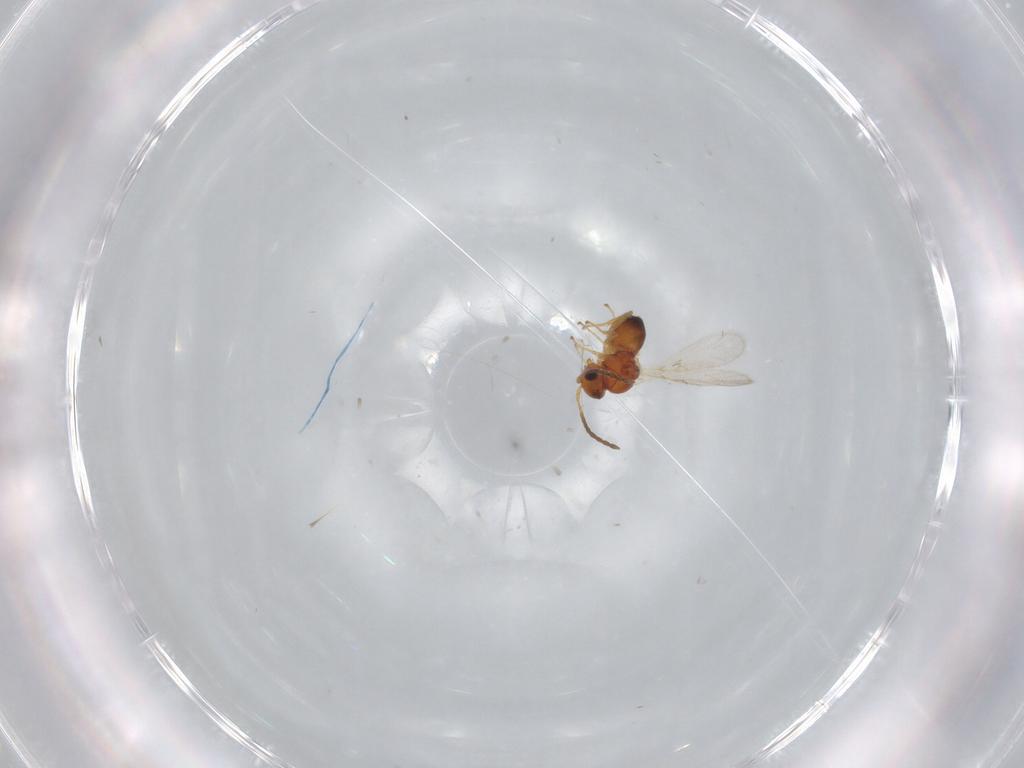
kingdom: Animalia
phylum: Arthropoda
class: Insecta
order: Hymenoptera
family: Figitidae
